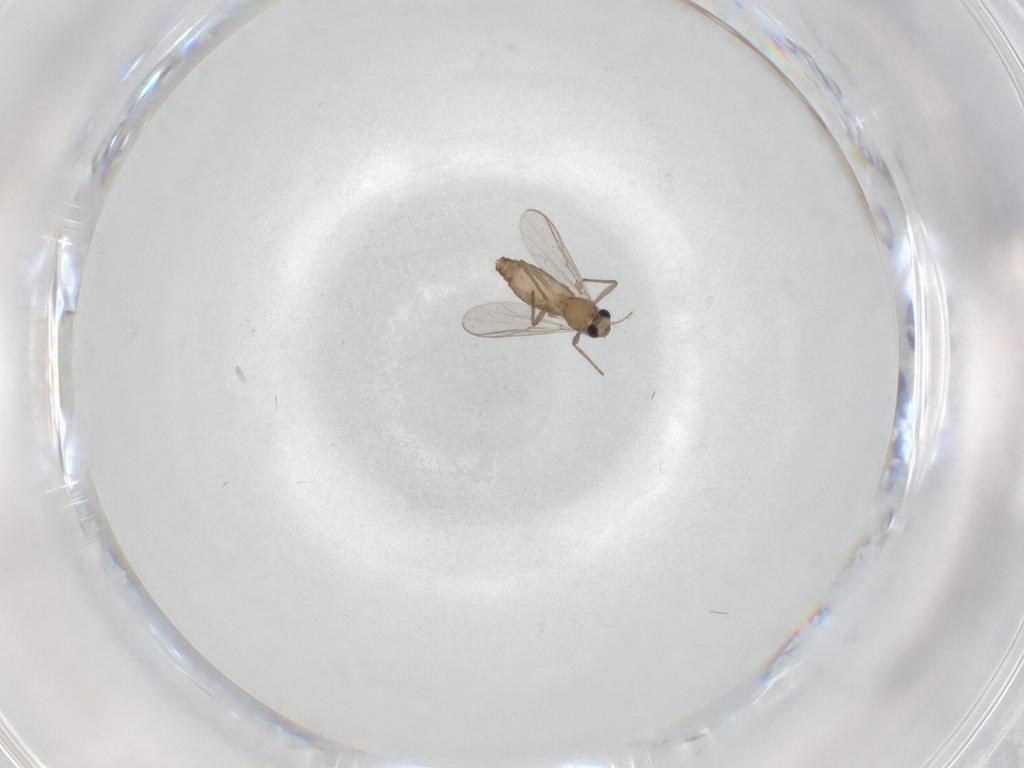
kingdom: Animalia
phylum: Arthropoda
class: Insecta
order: Diptera
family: Chironomidae
